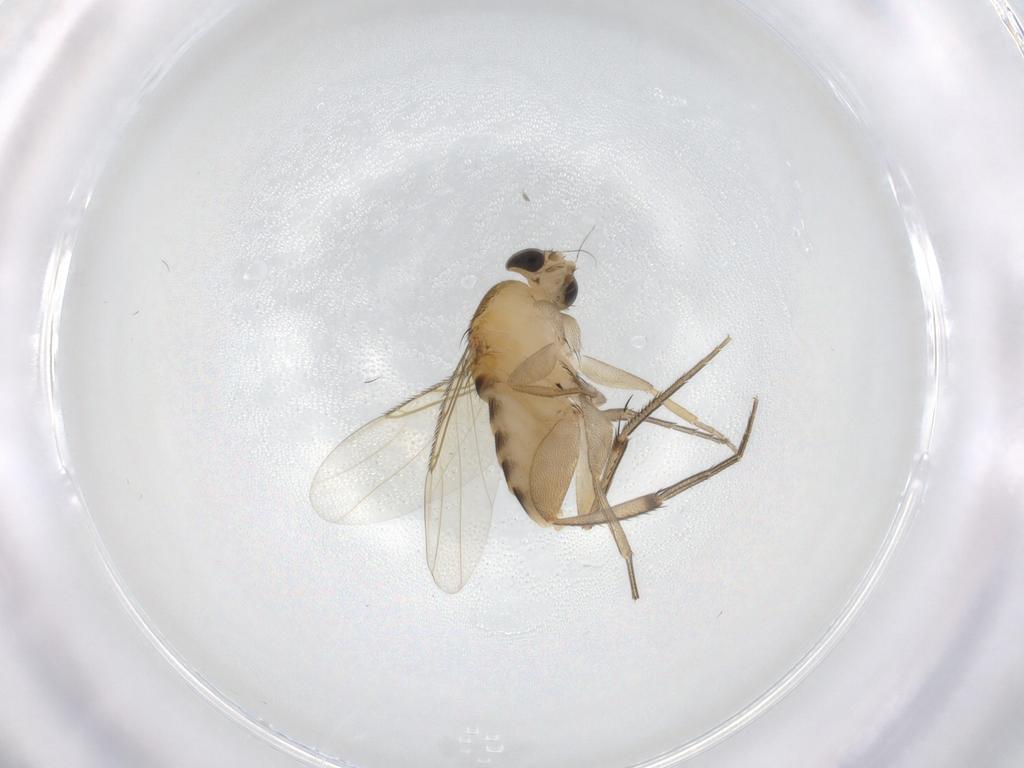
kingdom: Animalia
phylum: Arthropoda
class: Insecta
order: Diptera
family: Phoridae
